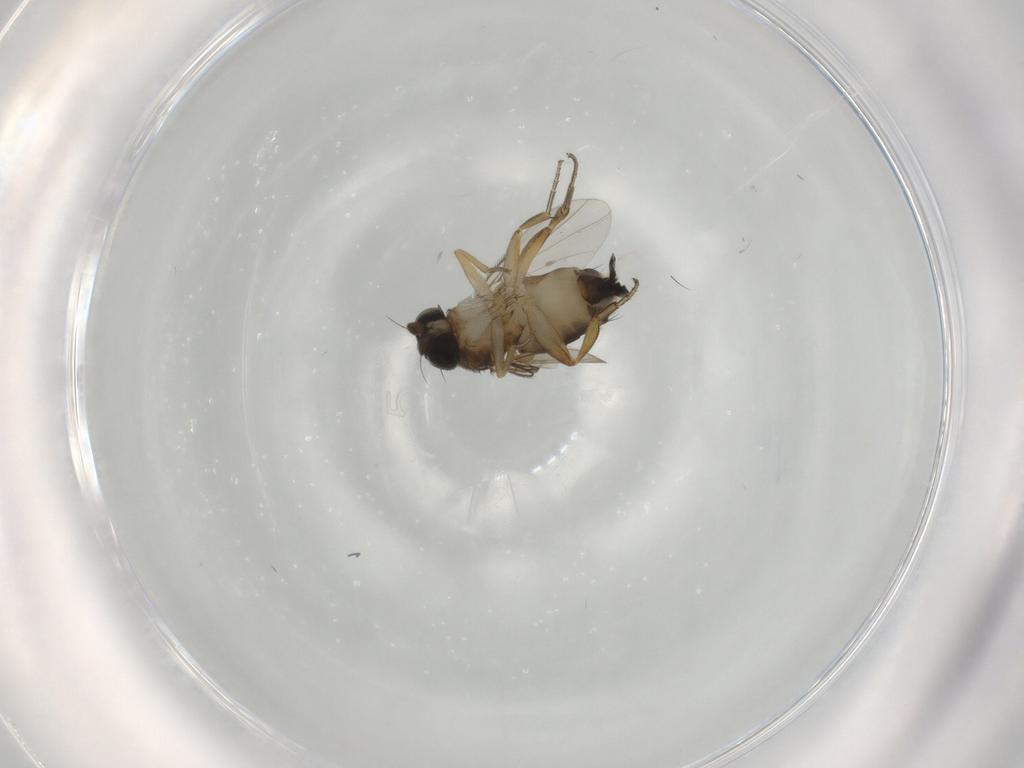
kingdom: Animalia
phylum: Arthropoda
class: Insecta
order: Diptera
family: Phoridae
